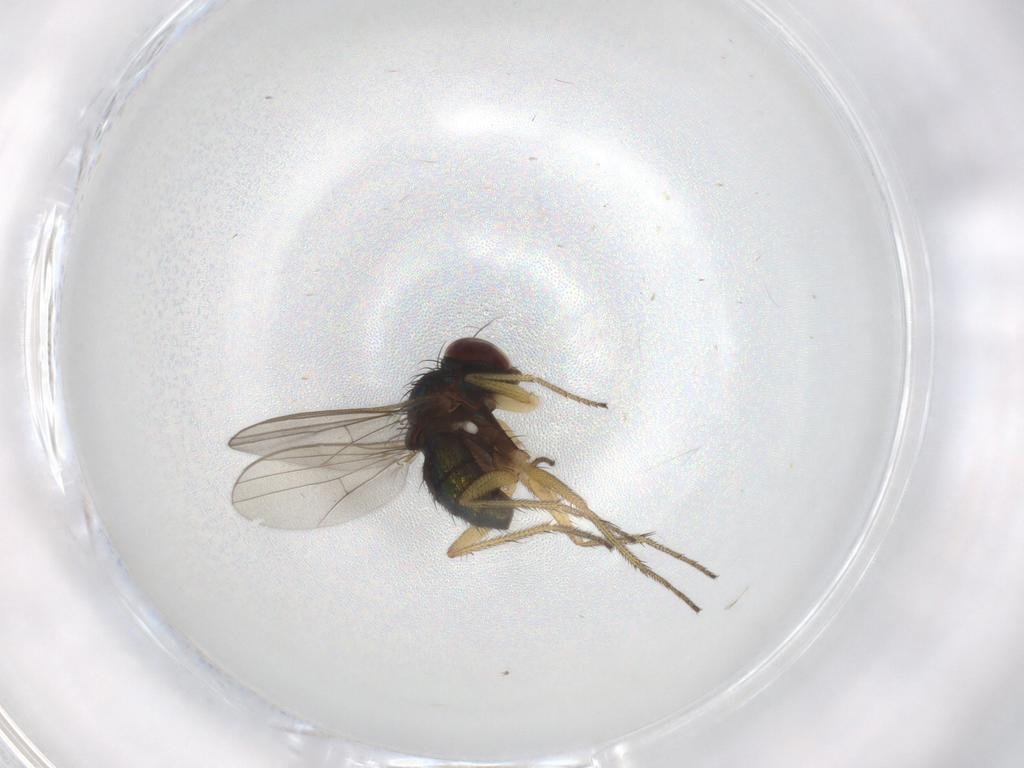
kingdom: Animalia
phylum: Arthropoda
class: Insecta
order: Diptera
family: Dolichopodidae
